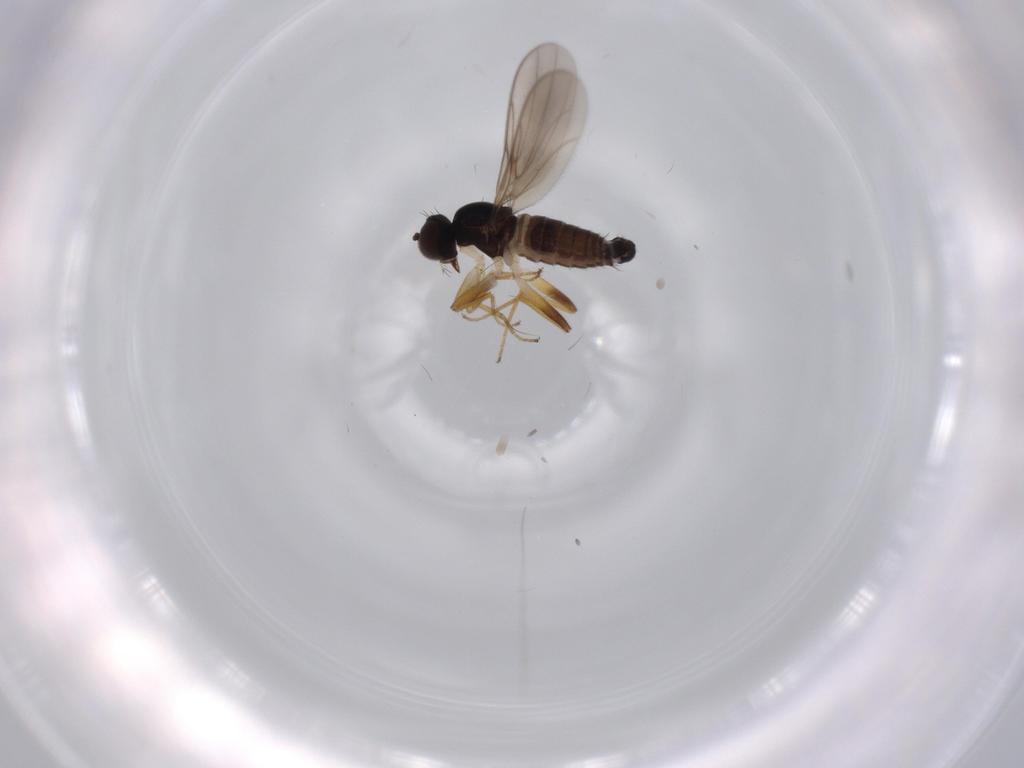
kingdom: Animalia
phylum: Arthropoda
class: Insecta
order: Diptera
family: Hybotidae
